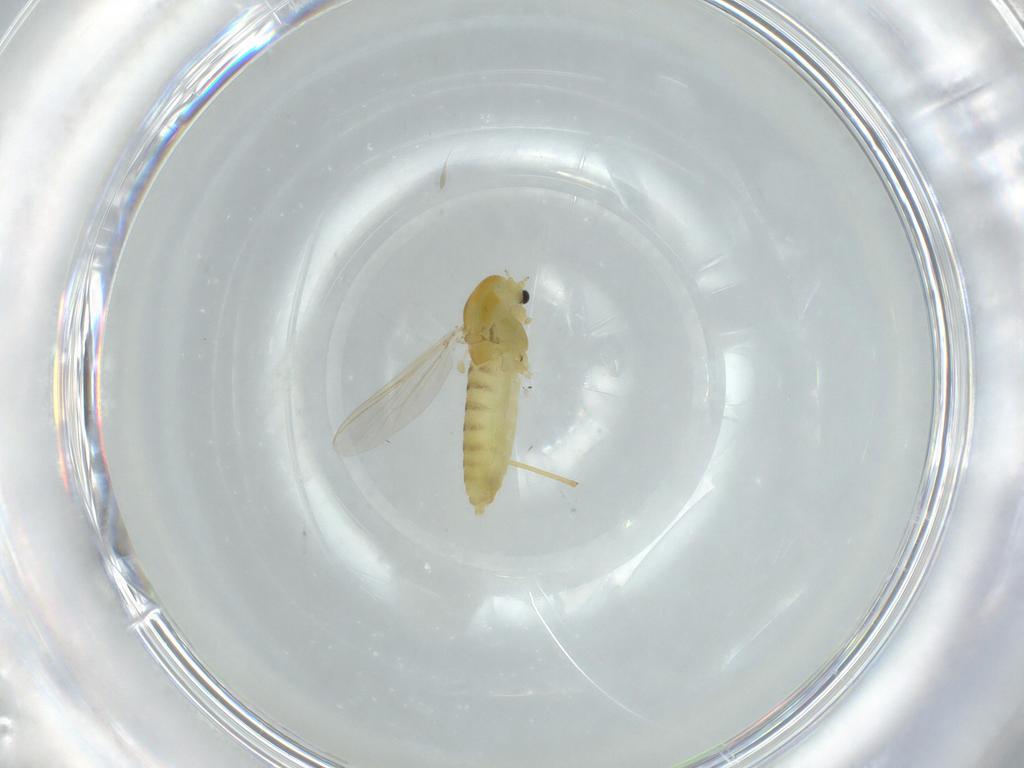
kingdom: Animalia
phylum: Arthropoda
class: Insecta
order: Diptera
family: Chironomidae
